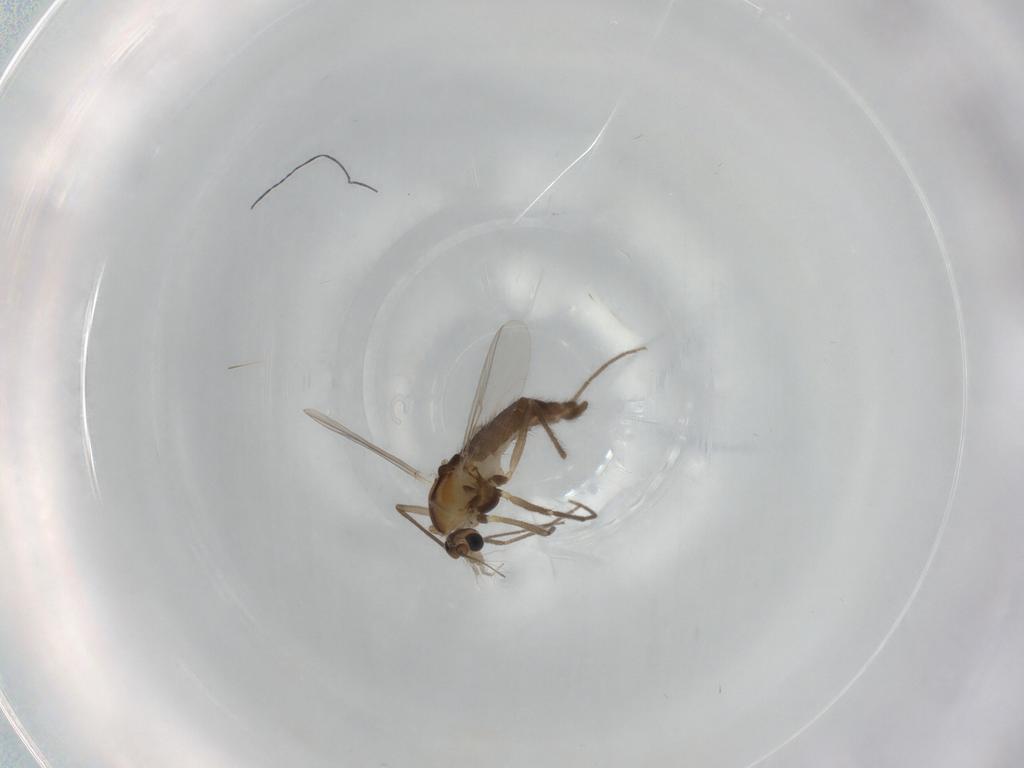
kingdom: Animalia
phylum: Arthropoda
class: Insecta
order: Diptera
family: Chironomidae
